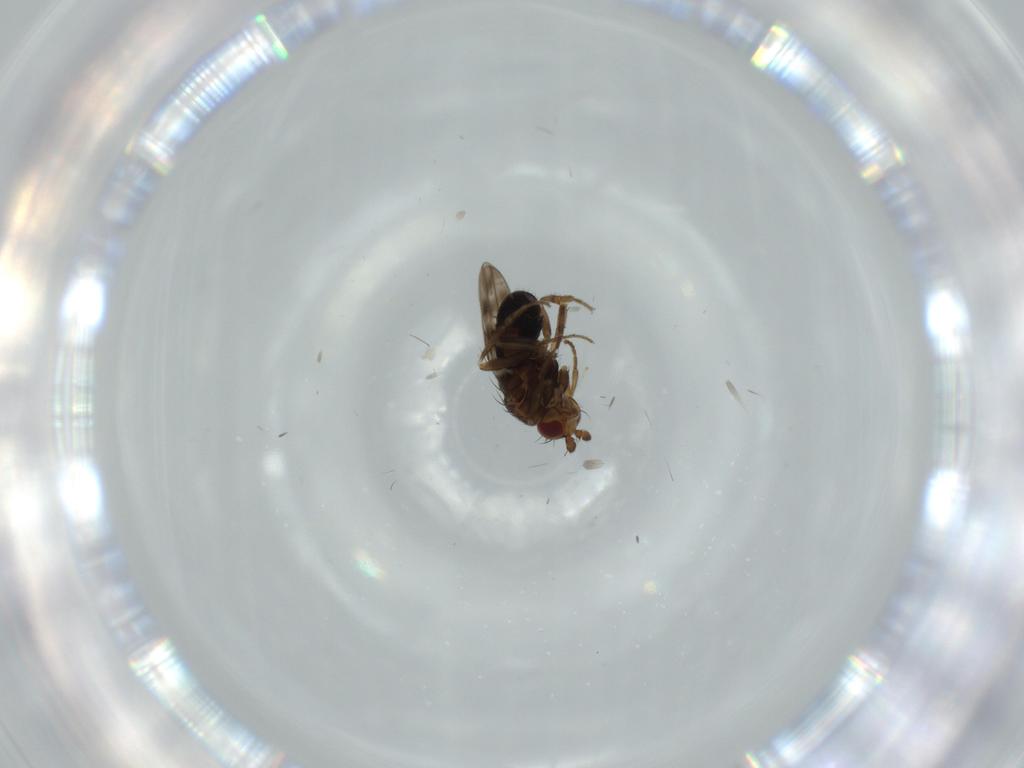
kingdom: Animalia
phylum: Arthropoda
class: Insecta
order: Diptera
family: Sphaeroceridae
